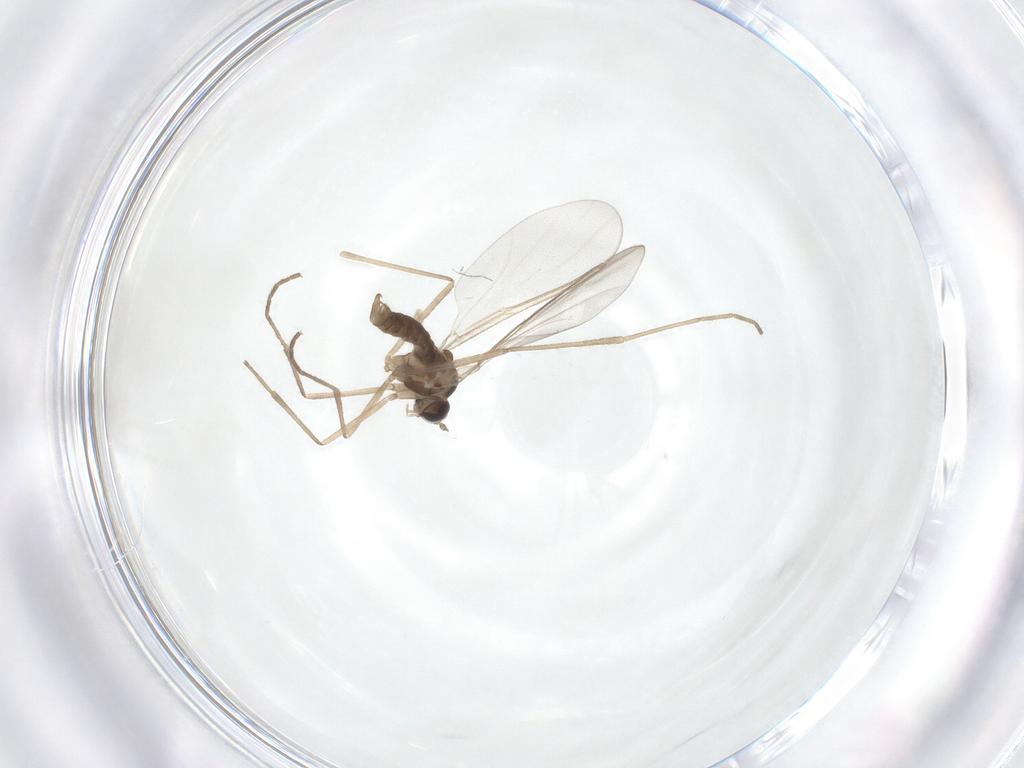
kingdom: Animalia
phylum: Arthropoda
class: Insecta
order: Diptera
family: Cecidomyiidae
